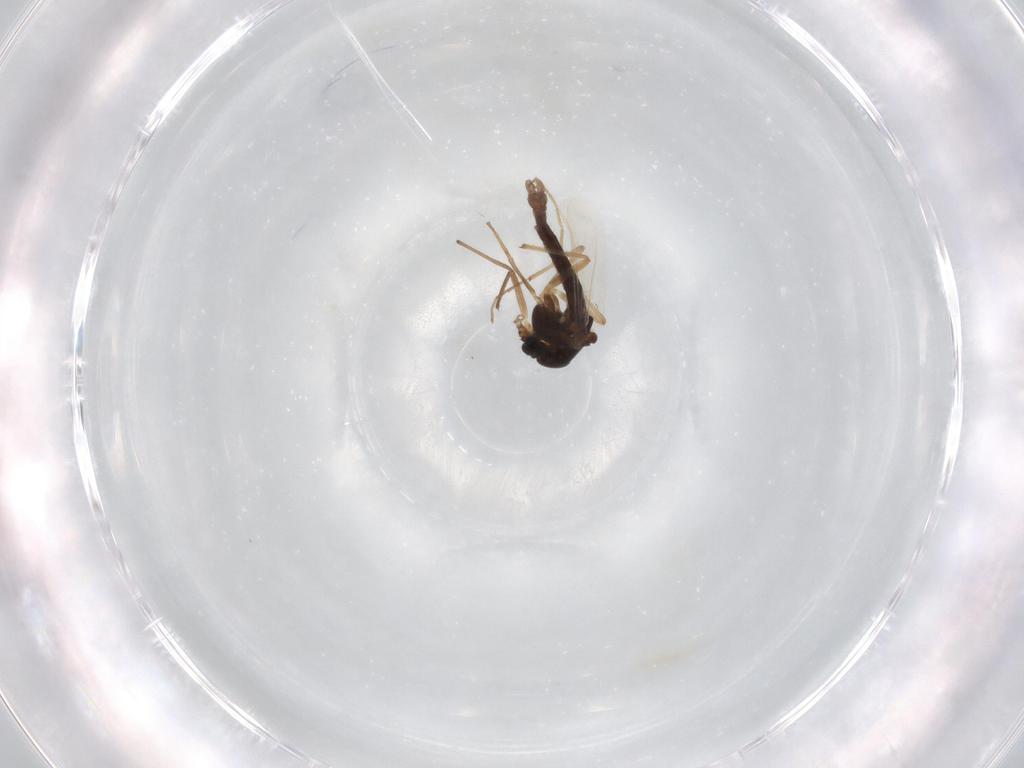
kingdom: Animalia
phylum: Arthropoda
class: Insecta
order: Diptera
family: Chironomidae
